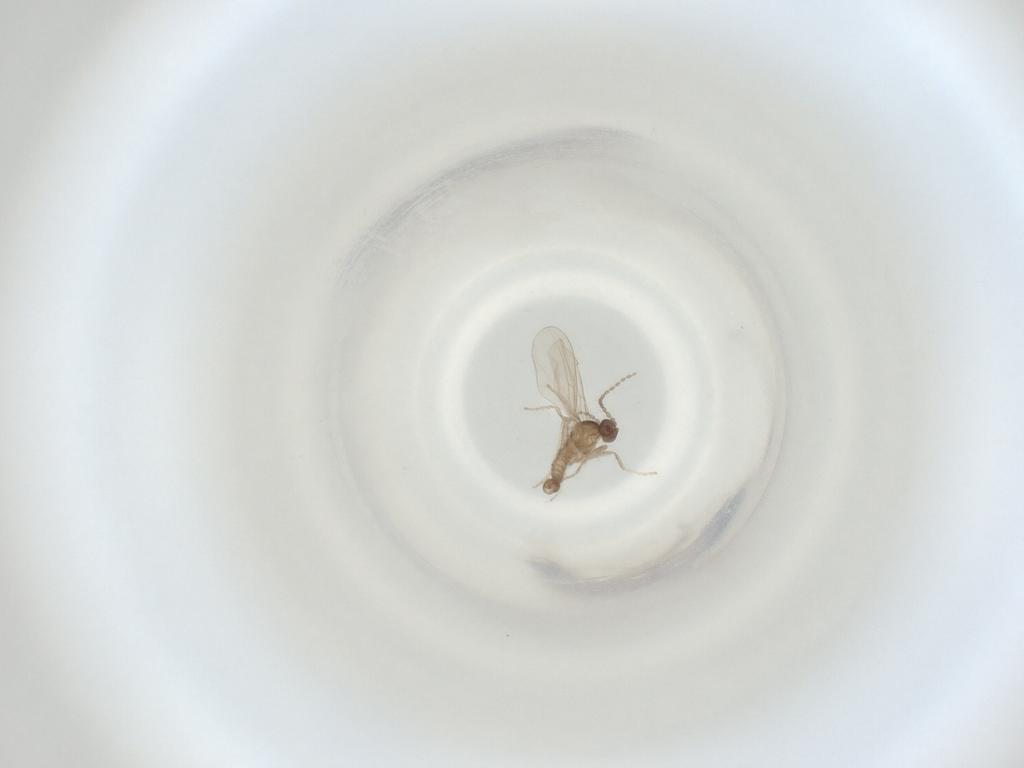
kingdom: Animalia
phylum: Arthropoda
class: Insecta
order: Diptera
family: Cecidomyiidae
